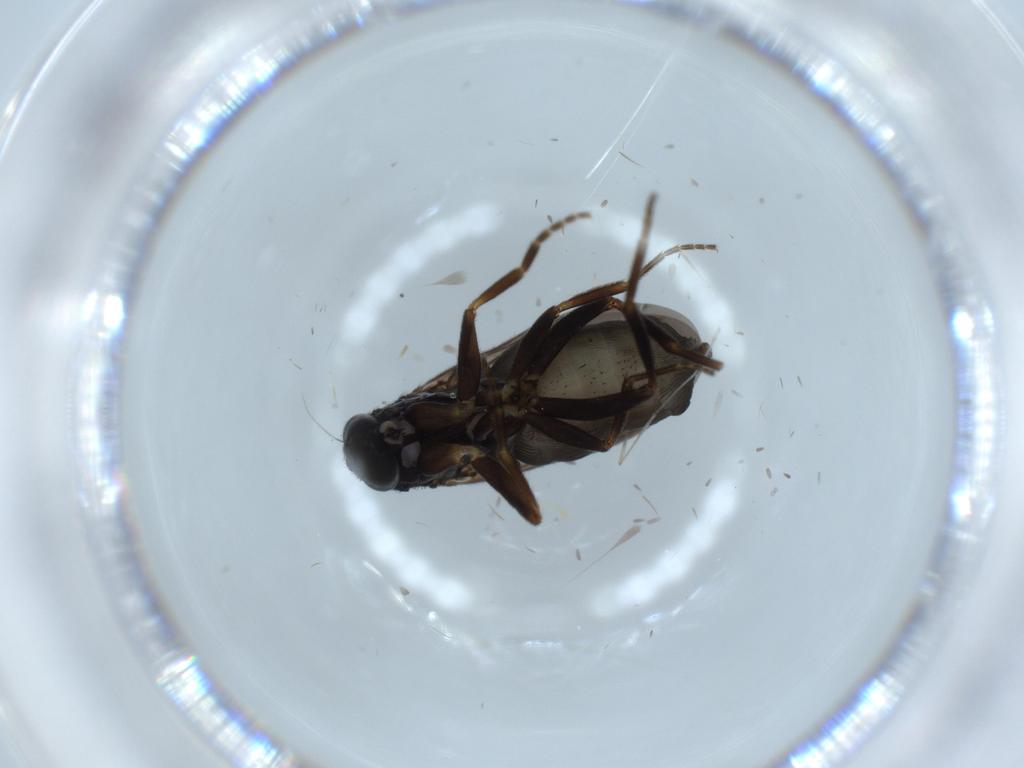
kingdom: Animalia
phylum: Arthropoda
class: Insecta
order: Diptera
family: Phoridae
